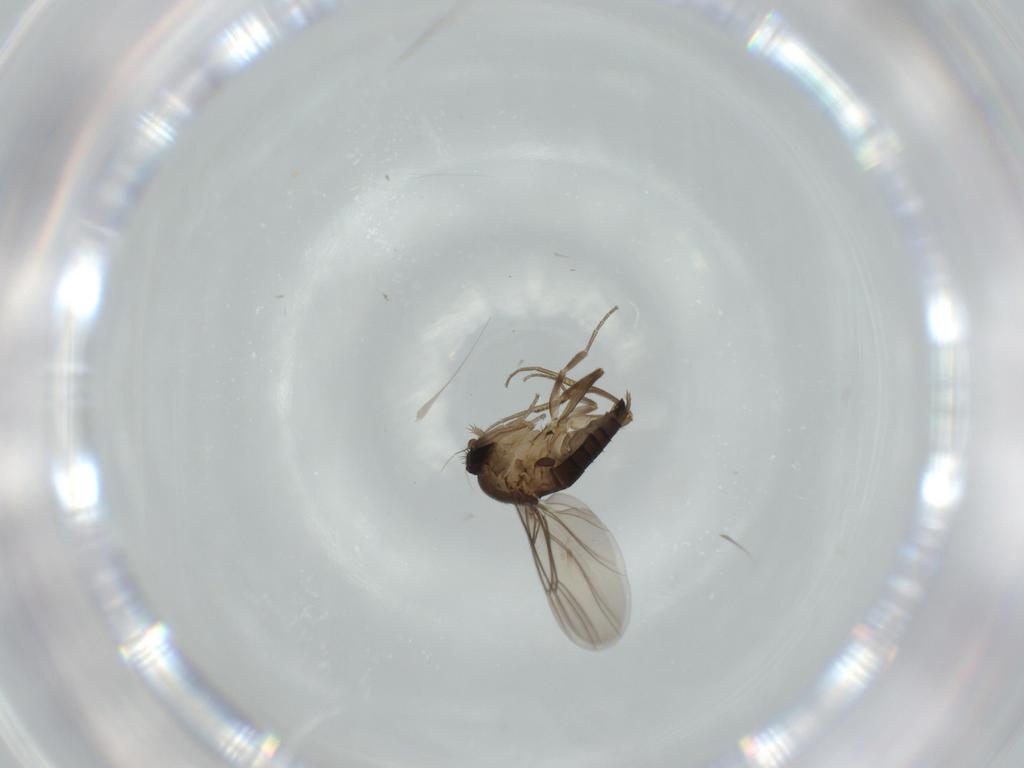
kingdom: Animalia
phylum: Arthropoda
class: Insecta
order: Diptera
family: Phoridae
